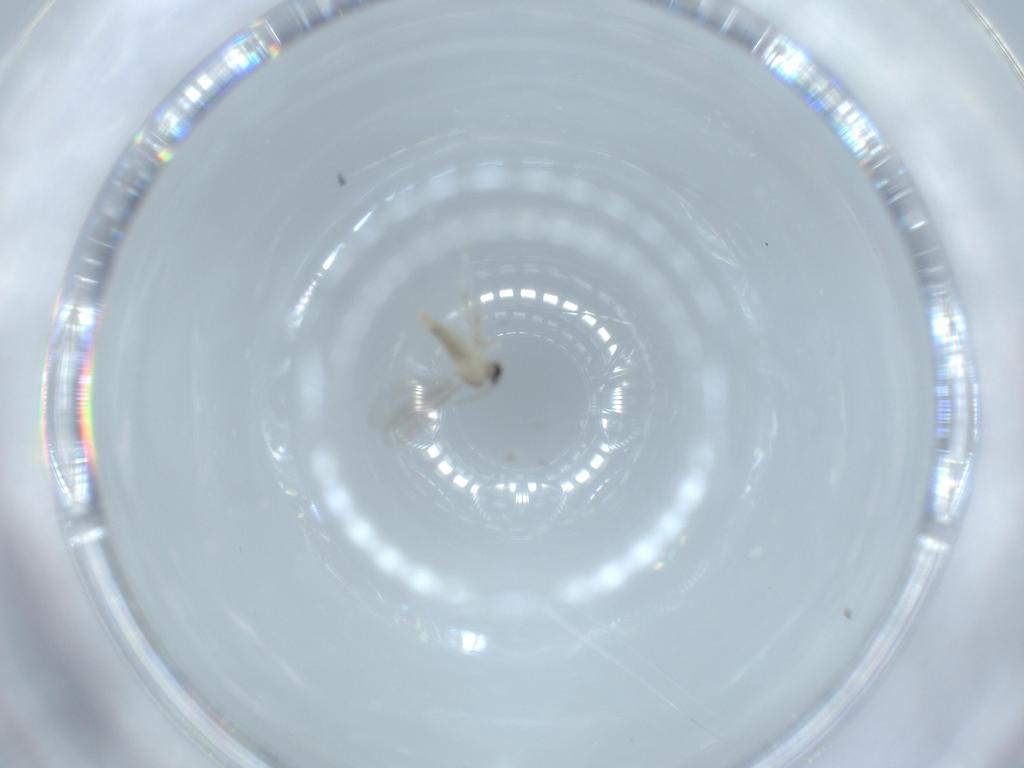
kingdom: Animalia
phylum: Arthropoda
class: Insecta
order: Diptera
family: Cecidomyiidae
